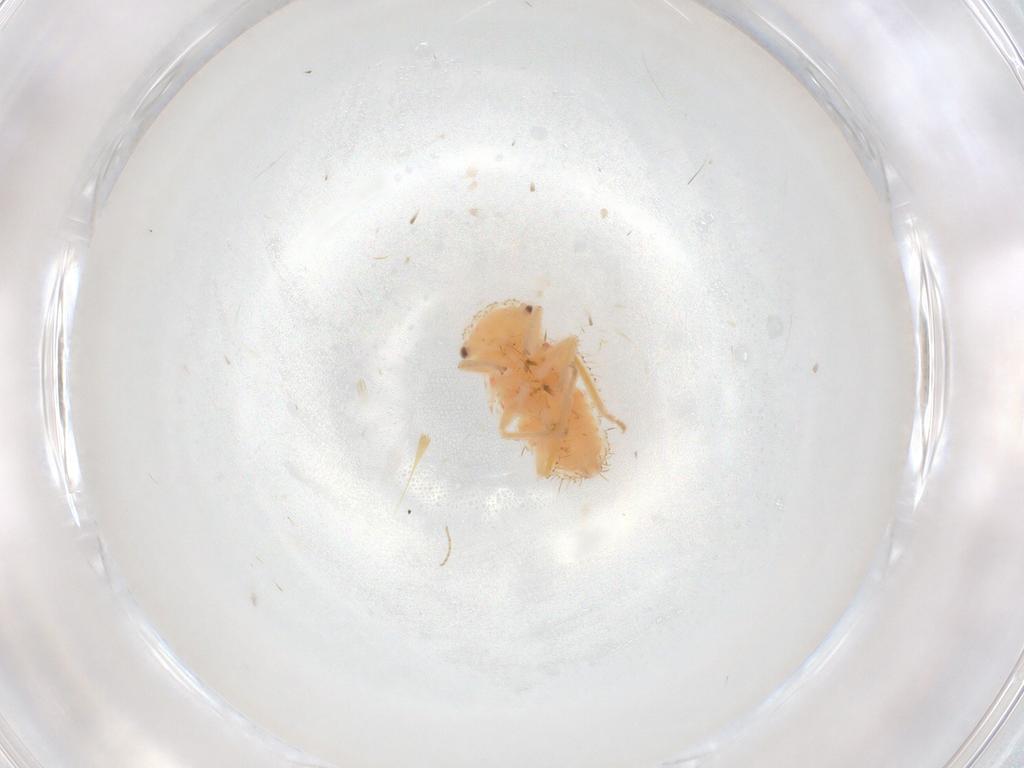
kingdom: Animalia
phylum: Arthropoda
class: Insecta
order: Hemiptera
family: Cicadellidae
